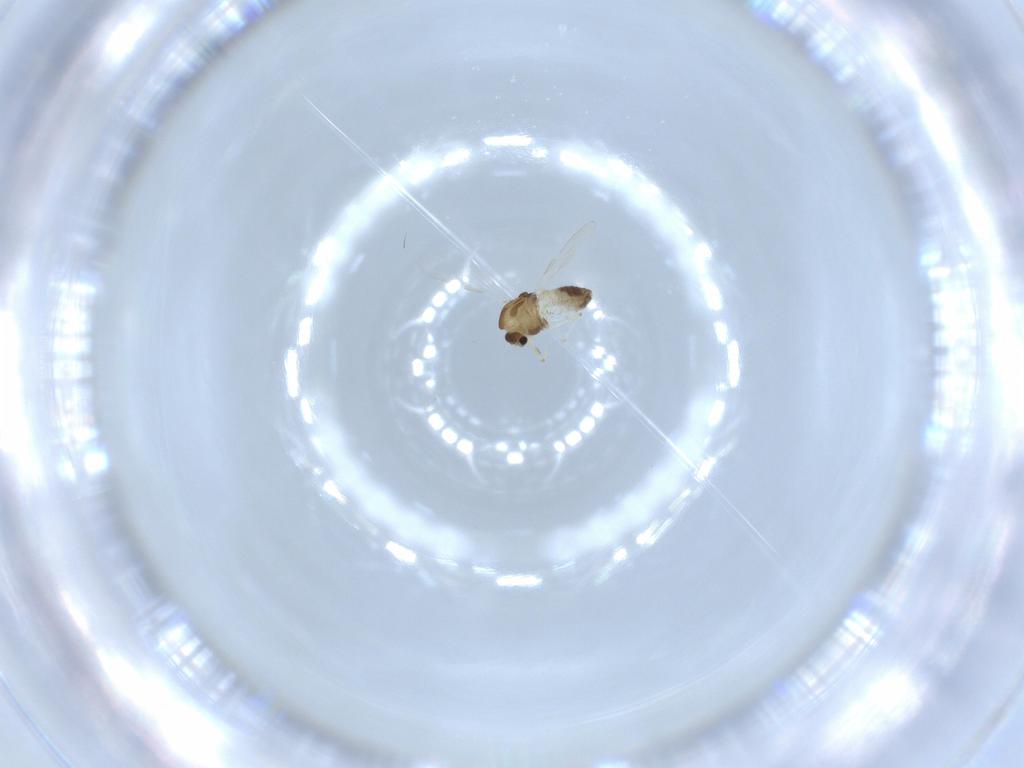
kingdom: Animalia
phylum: Arthropoda
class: Insecta
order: Diptera
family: Chironomidae
